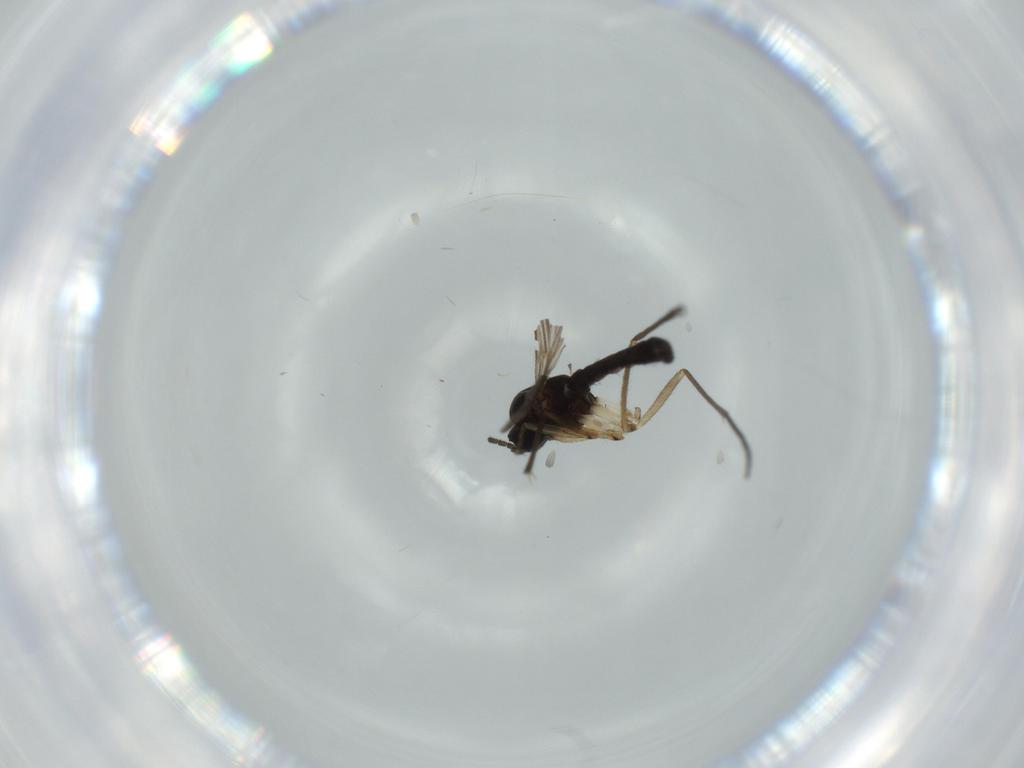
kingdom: Animalia
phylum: Arthropoda
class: Insecta
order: Diptera
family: Sciaridae
